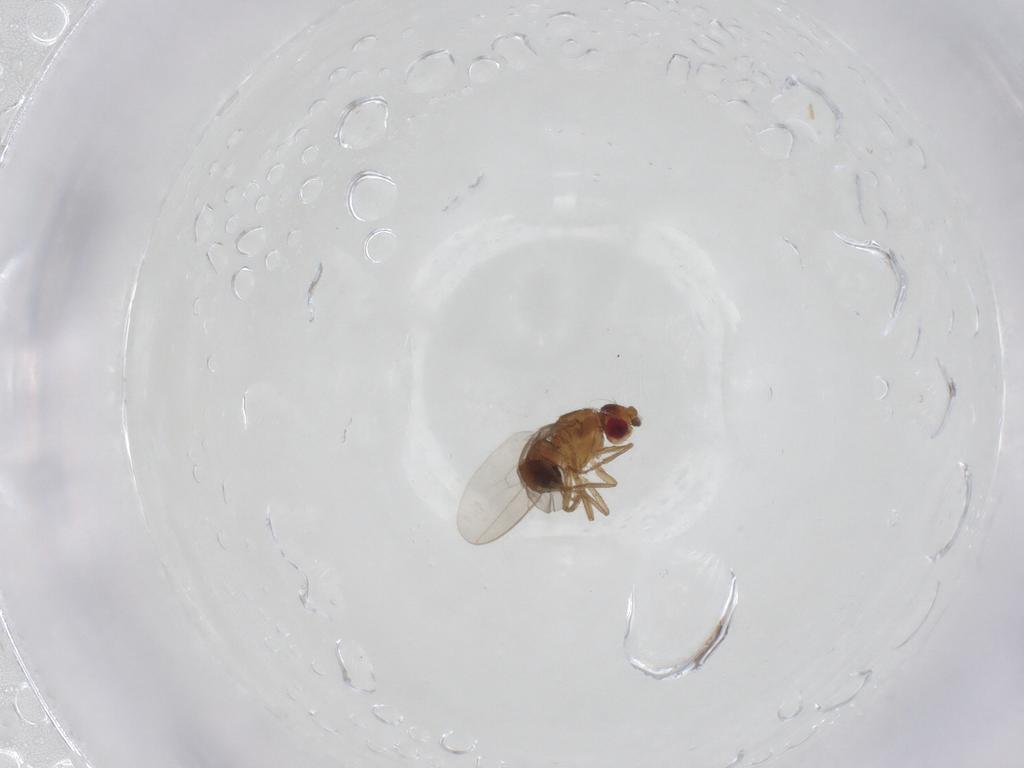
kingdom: Animalia
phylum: Arthropoda
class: Insecta
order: Diptera
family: Sphaeroceridae
